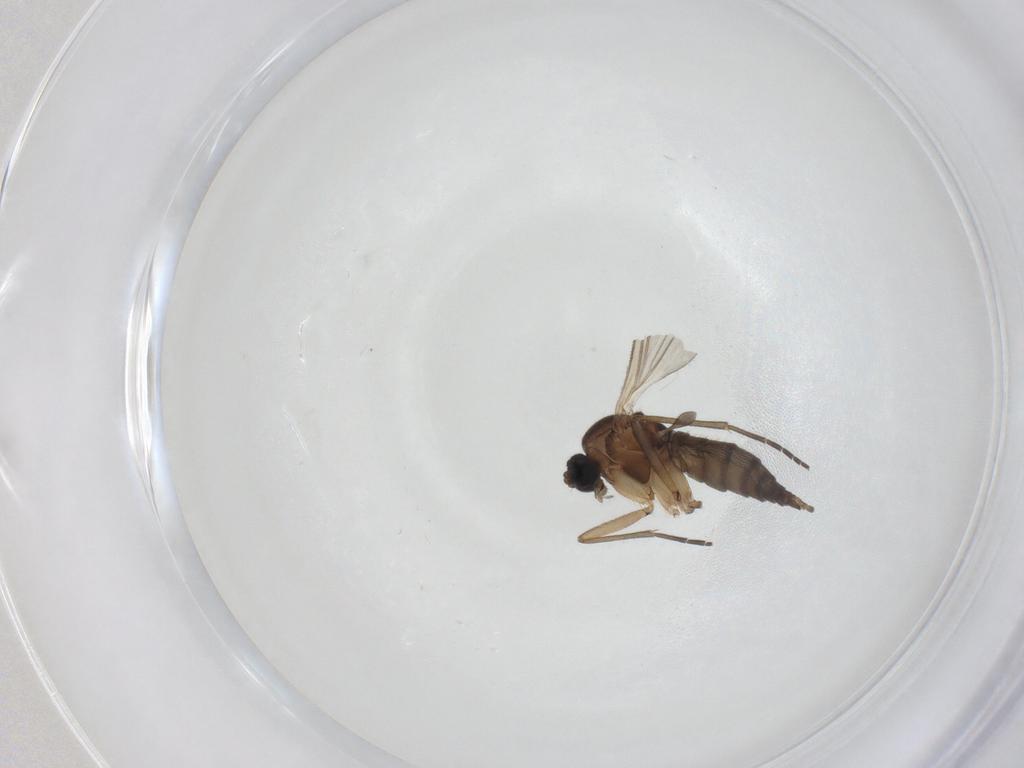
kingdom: Animalia
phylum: Arthropoda
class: Insecta
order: Diptera
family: Sciaridae
